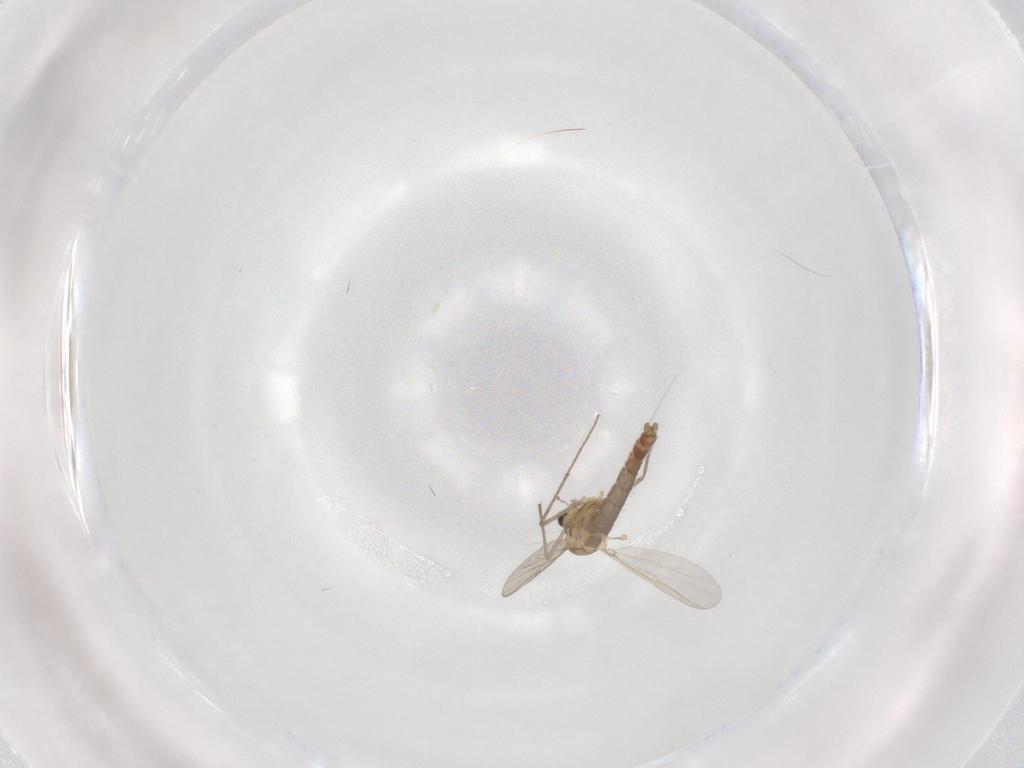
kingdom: Animalia
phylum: Arthropoda
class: Insecta
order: Diptera
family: Chironomidae
